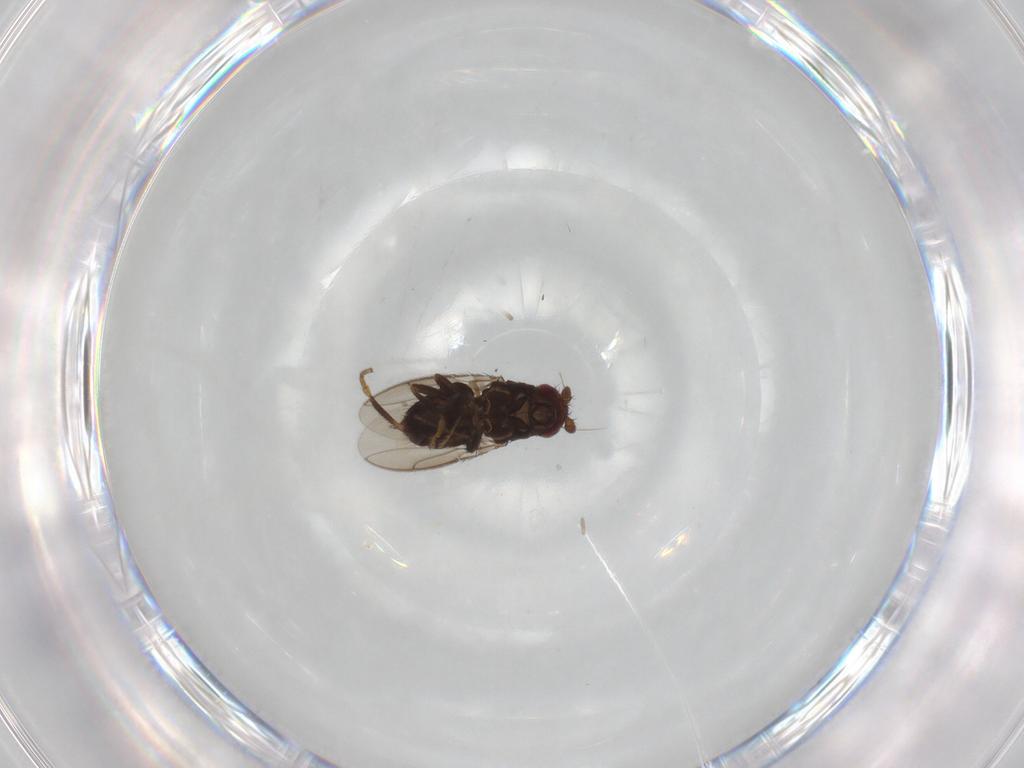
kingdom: Animalia
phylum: Arthropoda
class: Insecta
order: Diptera
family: Sphaeroceridae
